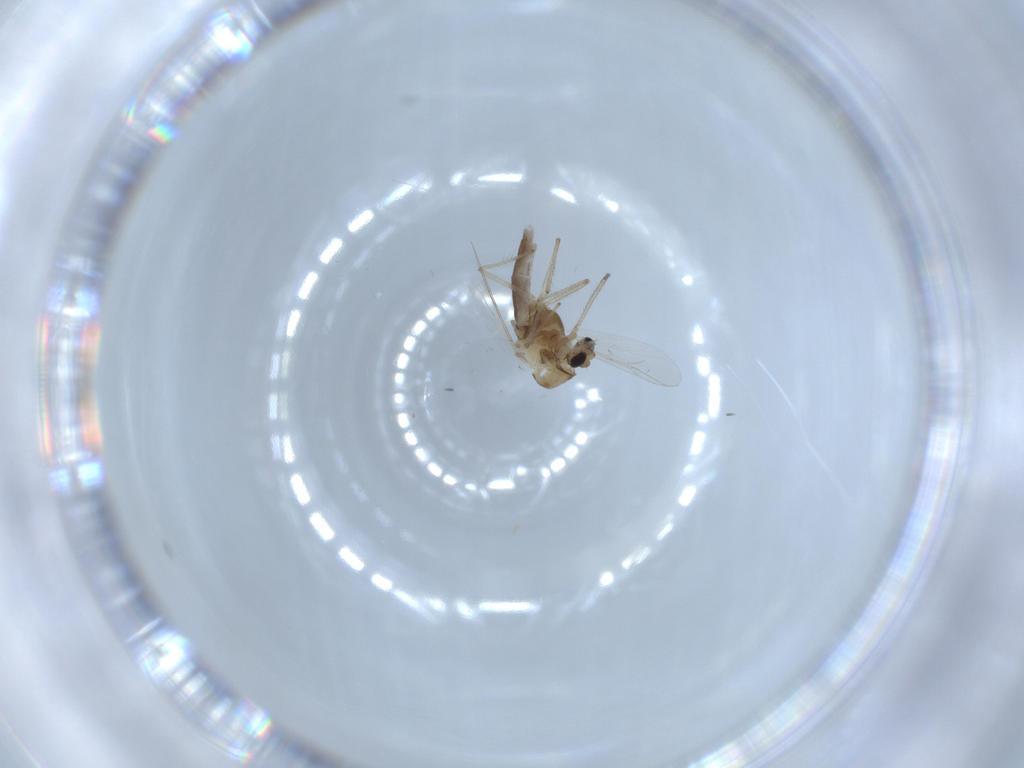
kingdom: Animalia
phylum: Arthropoda
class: Insecta
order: Diptera
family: Chironomidae
